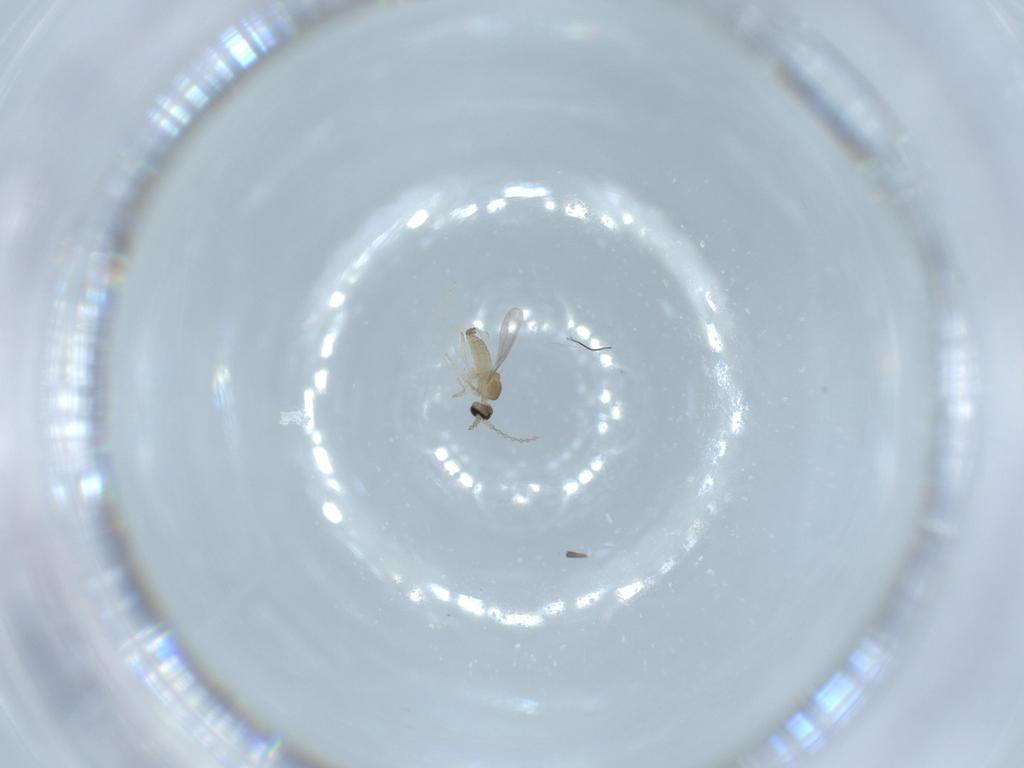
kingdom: Animalia
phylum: Arthropoda
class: Insecta
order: Diptera
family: Cecidomyiidae
